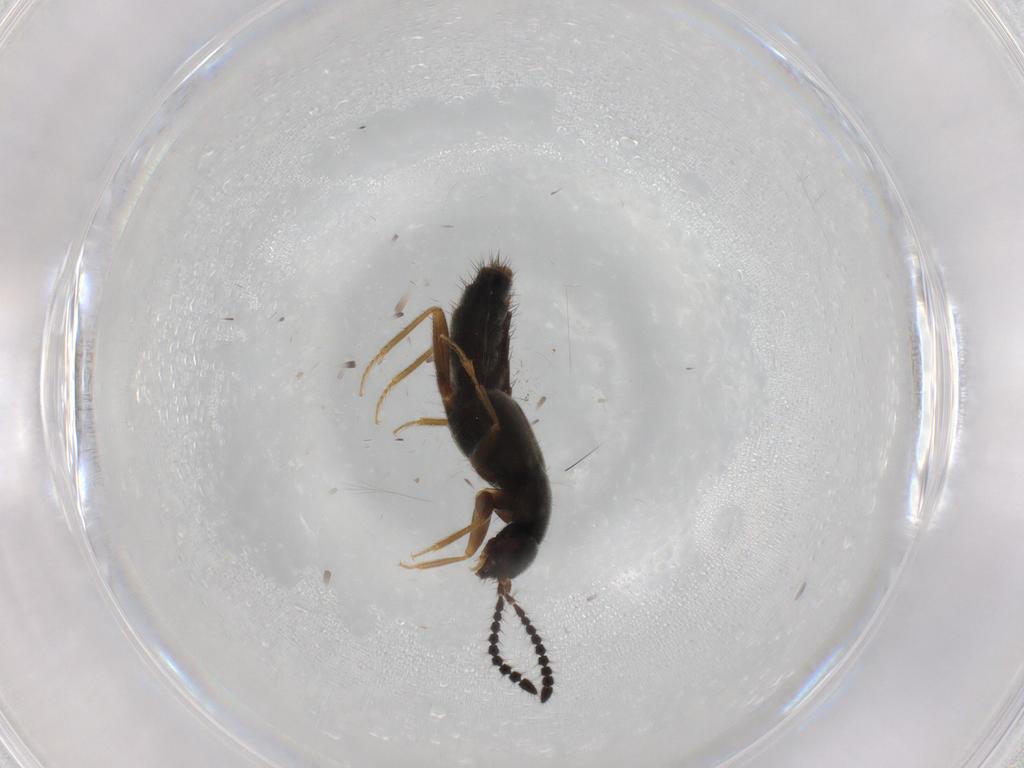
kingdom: Animalia
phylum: Arthropoda
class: Insecta
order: Coleoptera
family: Staphylinidae
